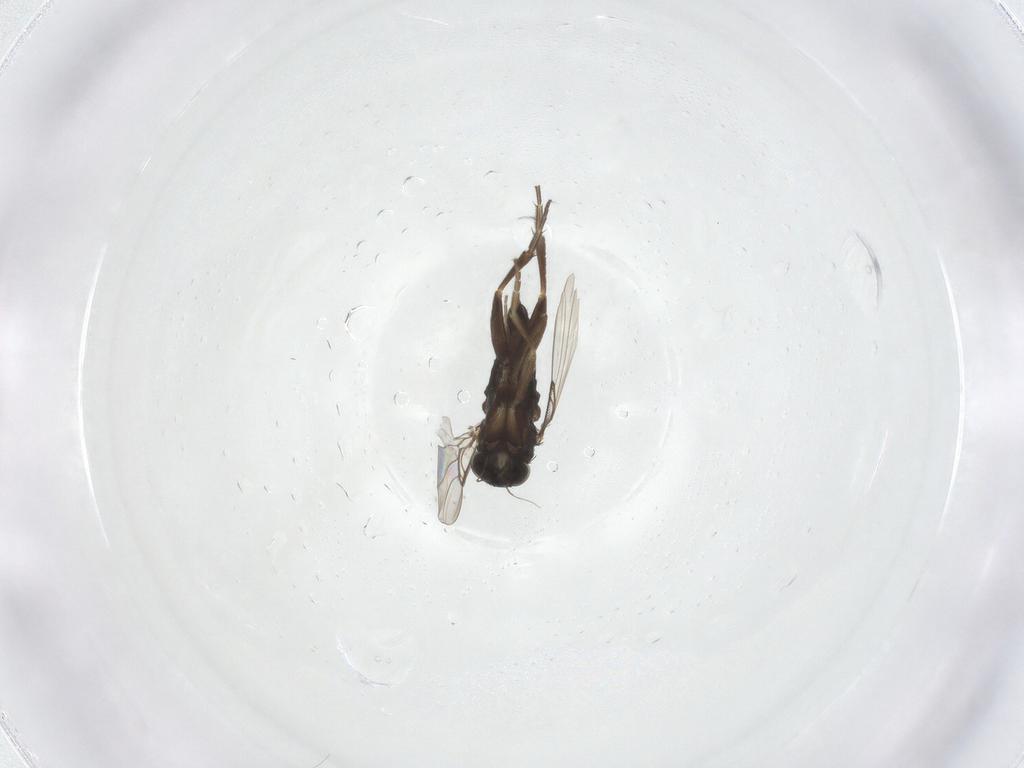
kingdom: Animalia
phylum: Arthropoda
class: Insecta
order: Diptera
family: Phoridae
